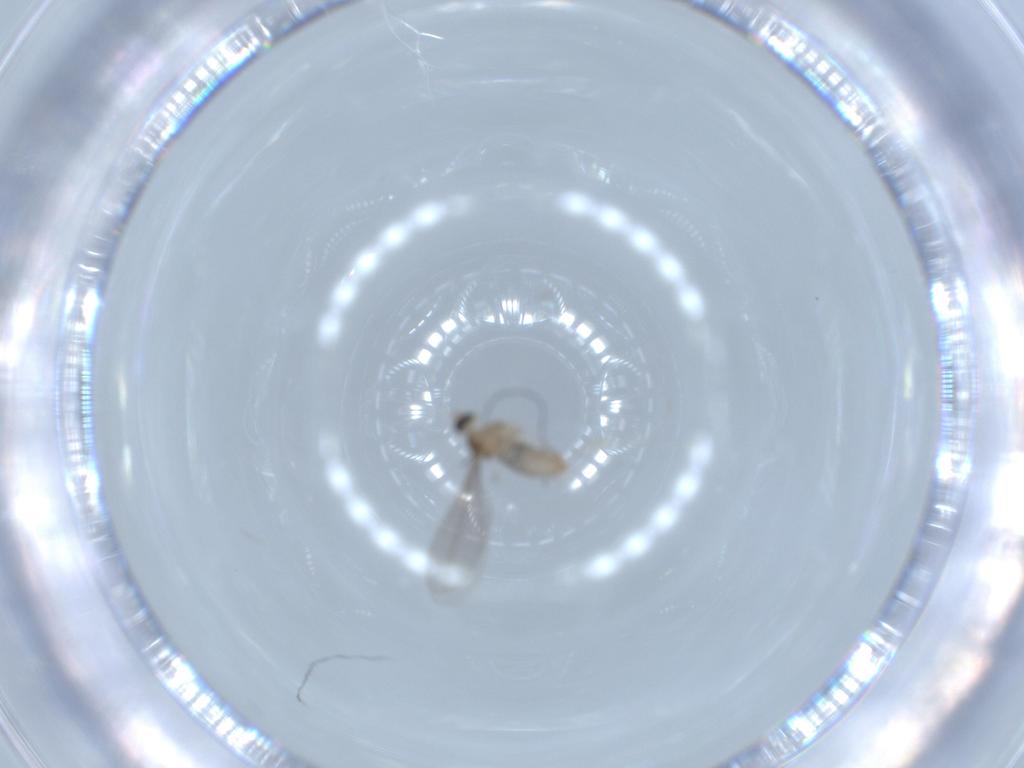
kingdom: Animalia
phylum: Arthropoda
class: Insecta
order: Diptera
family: Cecidomyiidae
